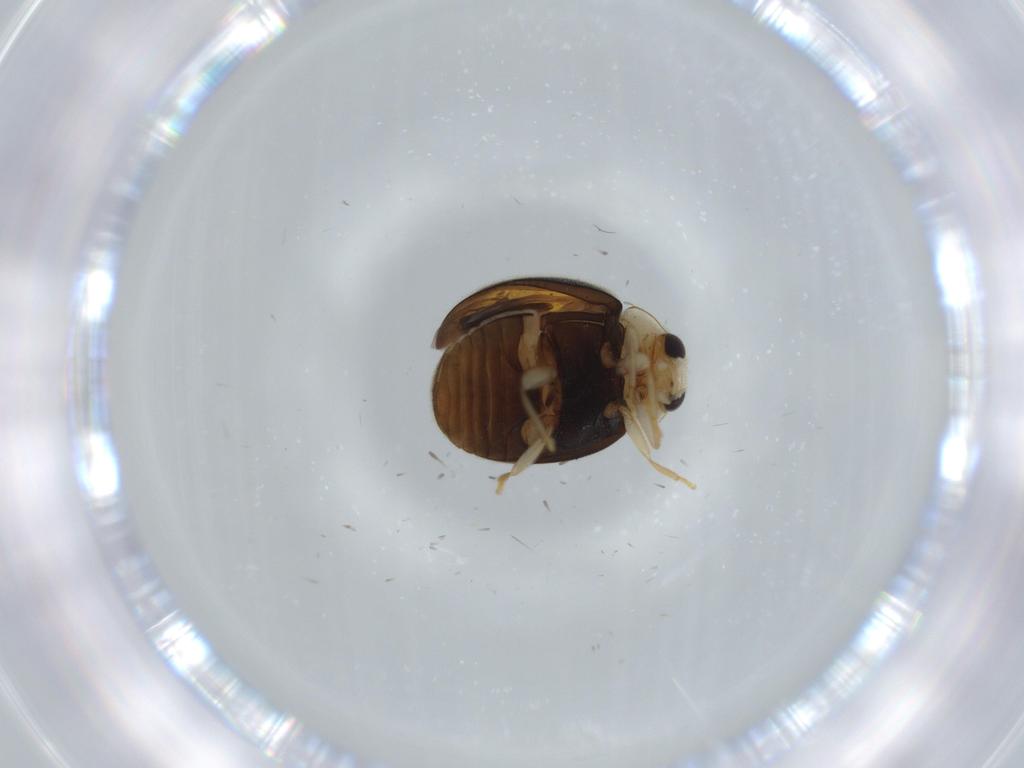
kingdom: Animalia
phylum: Arthropoda
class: Insecta
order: Coleoptera
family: Coccinellidae
